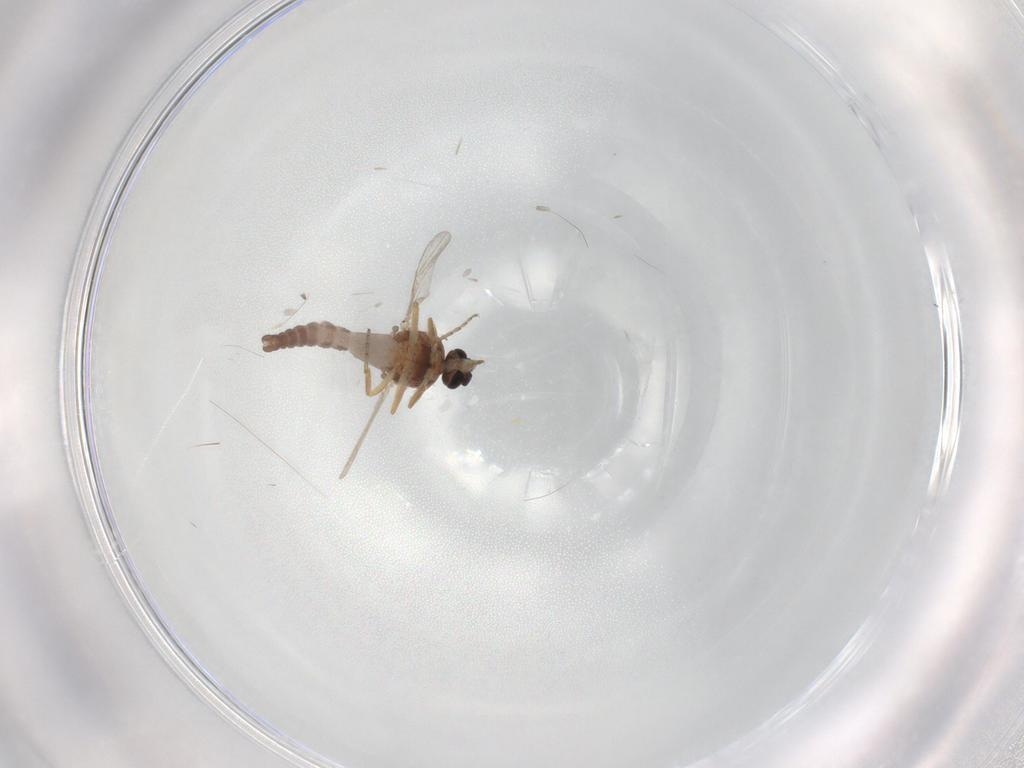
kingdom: Animalia
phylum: Arthropoda
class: Insecta
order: Diptera
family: Ceratopogonidae
